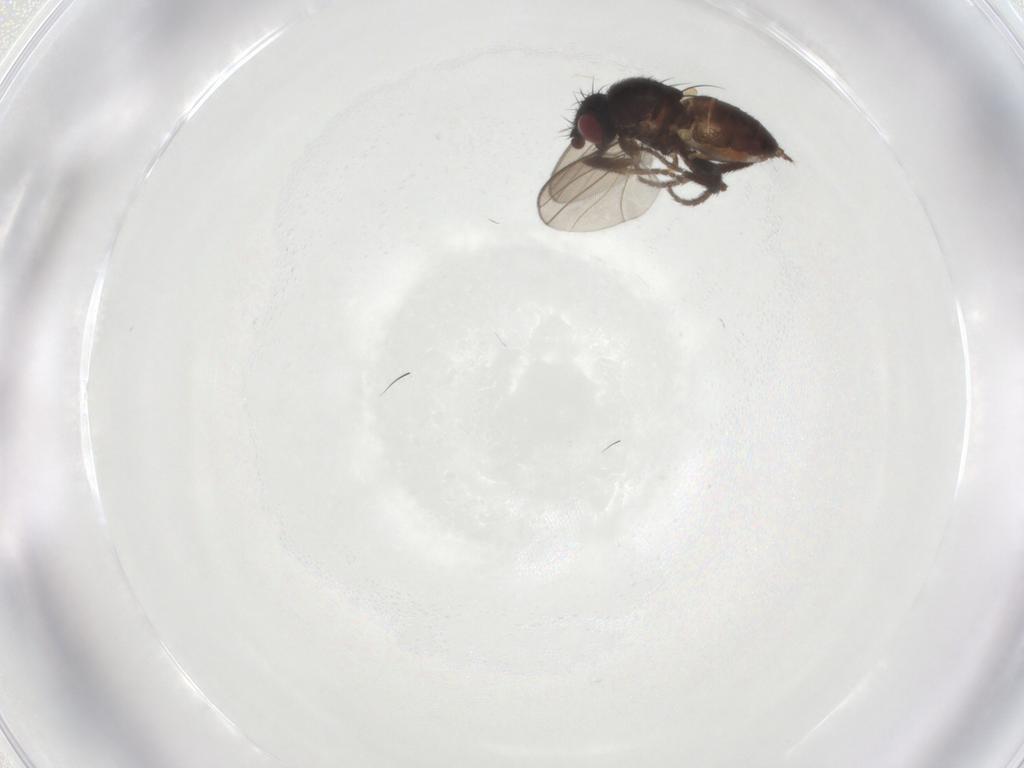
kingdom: Animalia
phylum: Arthropoda
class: Insecta
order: Diptera
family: Milichiidae
